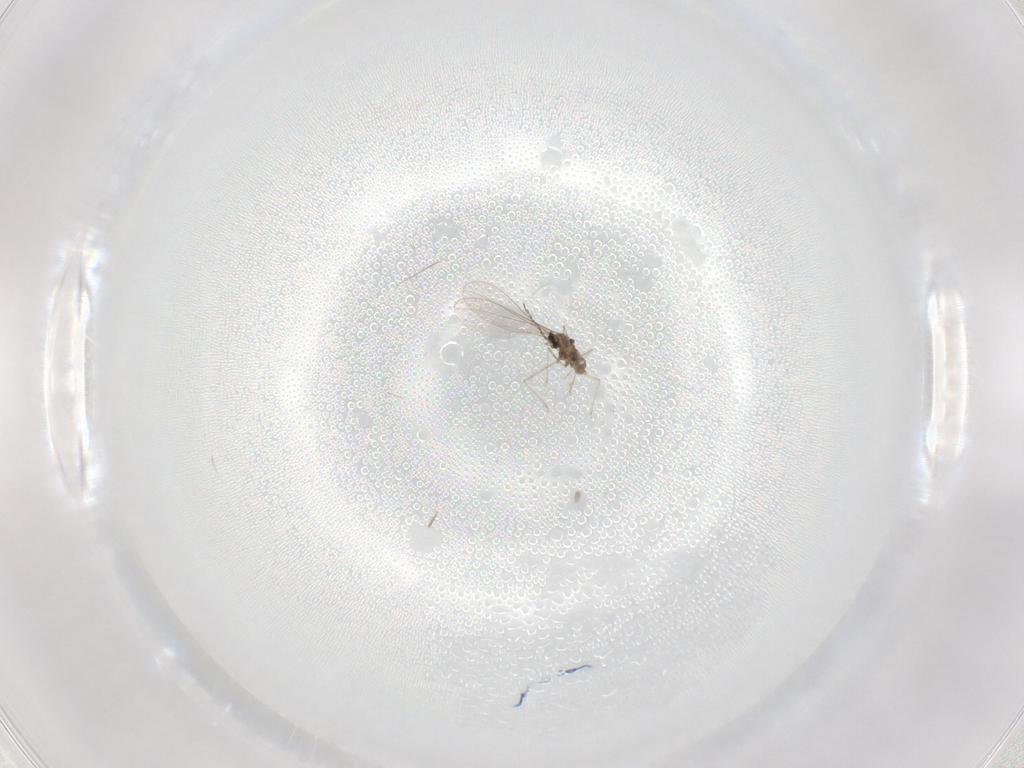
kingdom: Animalia
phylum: Arthropoda
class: Insecta
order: Diptera
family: Cecidomyiidae
